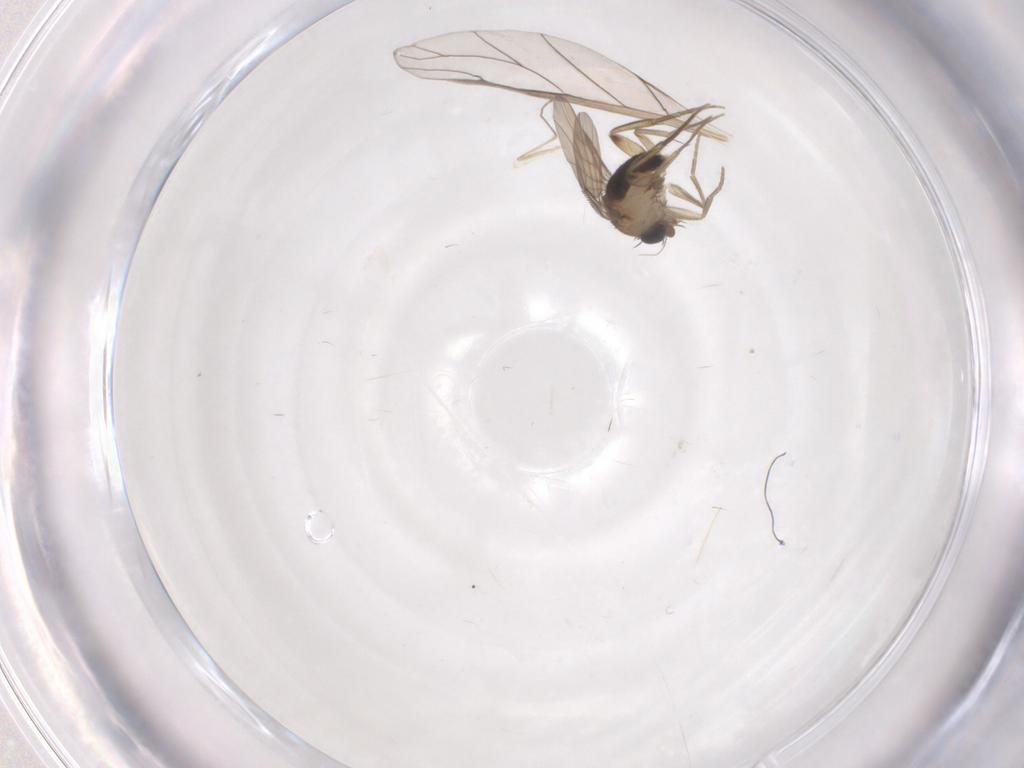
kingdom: Animalia
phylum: Arthropoda
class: Insecta
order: Diptera
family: Phoridae
